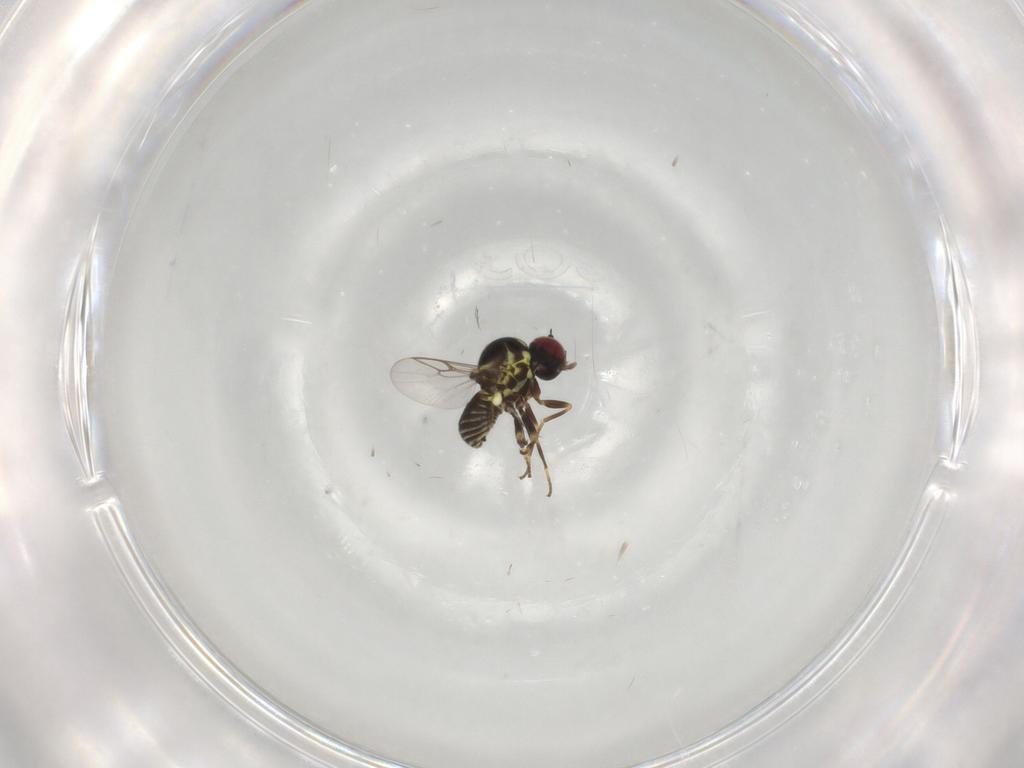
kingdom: Animalia
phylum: Arthropoda
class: Insecta
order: Diptera
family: Mythicomyiidae
